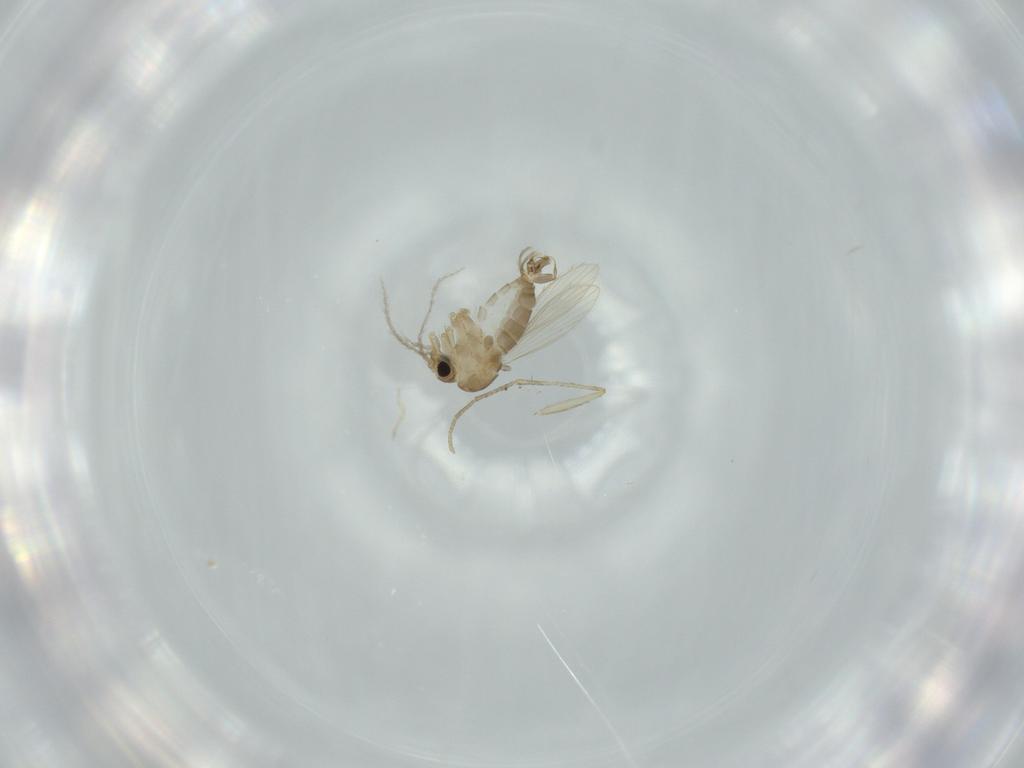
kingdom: Animalia
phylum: Arthropoda
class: Insecta
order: Diptera
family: Psychodidae
